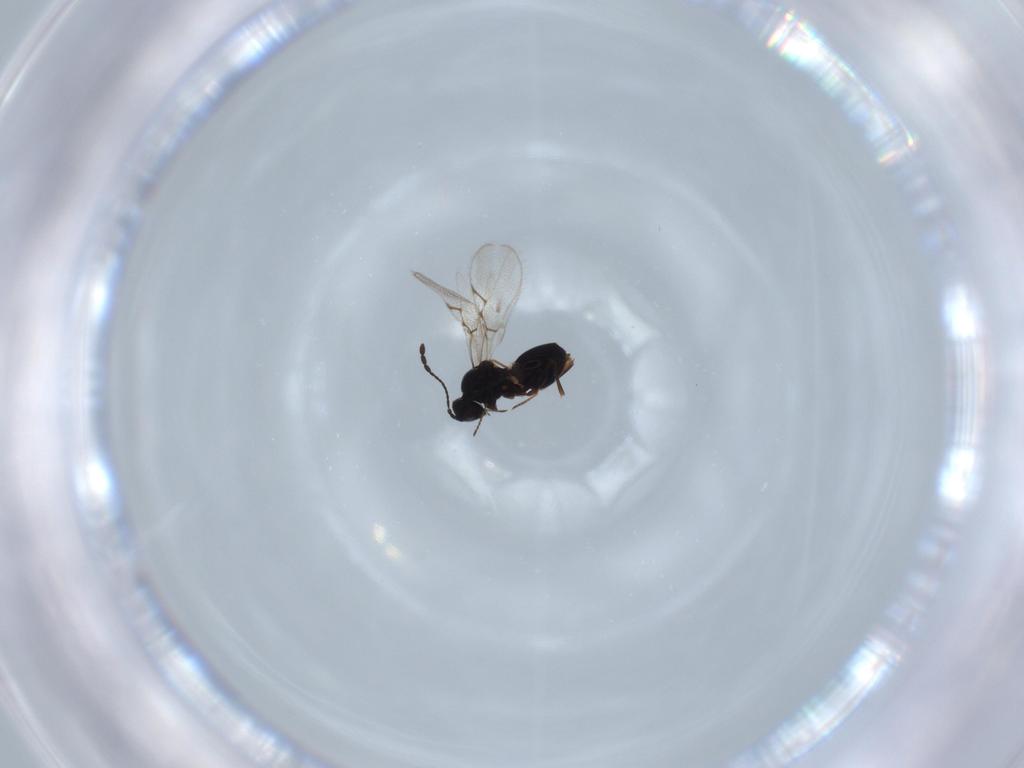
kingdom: Animalia
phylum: Arthropoda
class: Insecta
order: Hymenoptera
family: Figitidae
